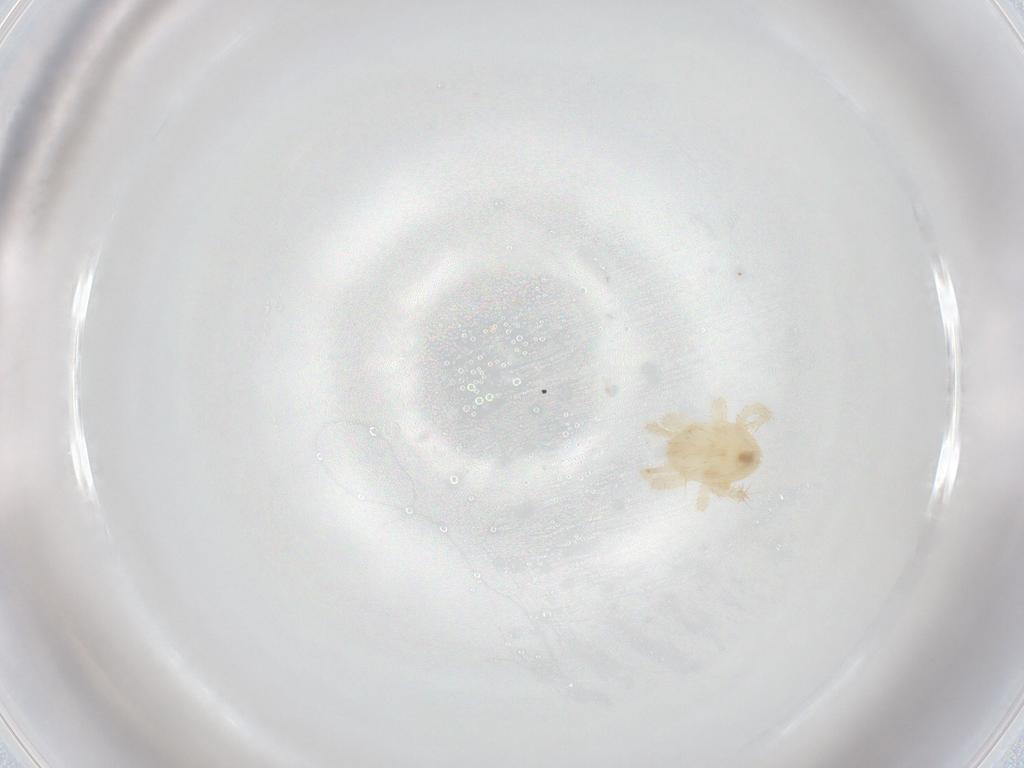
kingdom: Animalia
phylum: Arthropoda
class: Arachnida
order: Mesostigmata
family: Parasitidae
